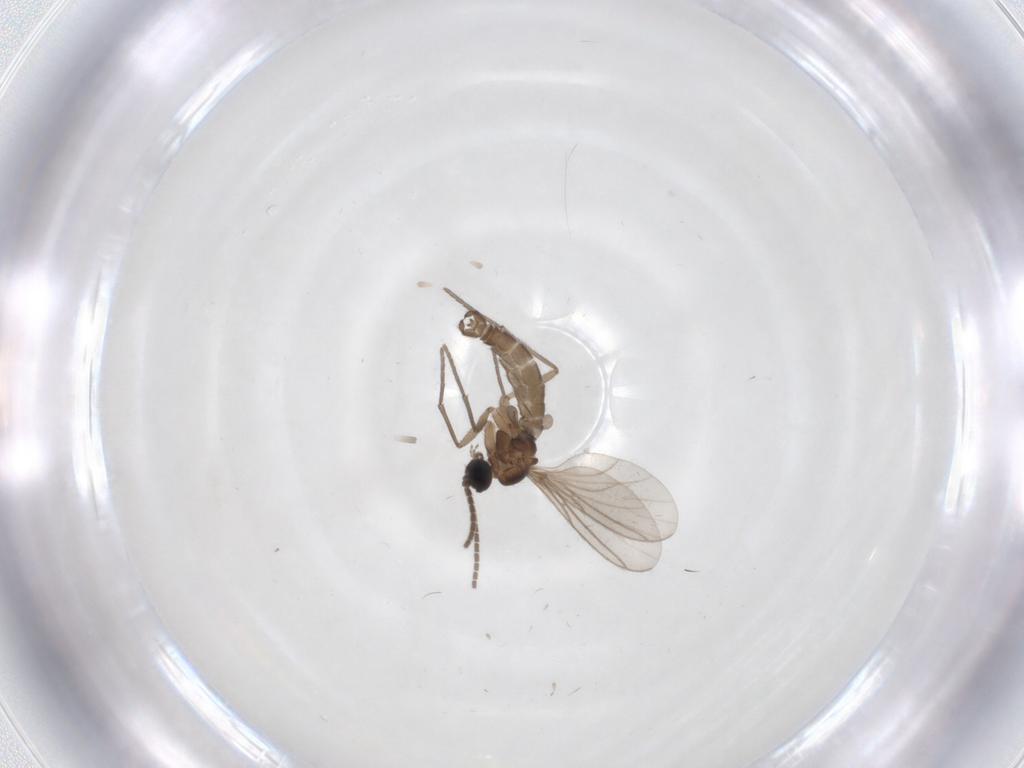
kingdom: Animalia
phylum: Arthropoda
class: Insecta
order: Diptera
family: Sciaridae
